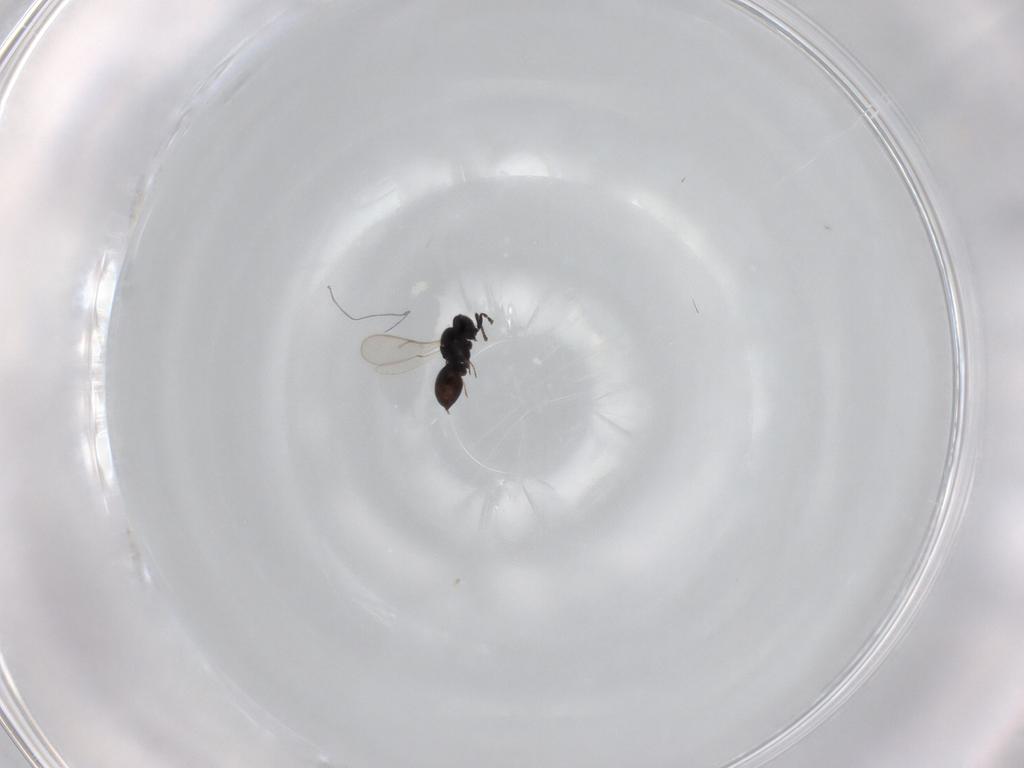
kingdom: Animalia
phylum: Arthropoda
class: Insecta
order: Hymenoptera
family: Scelionidae
